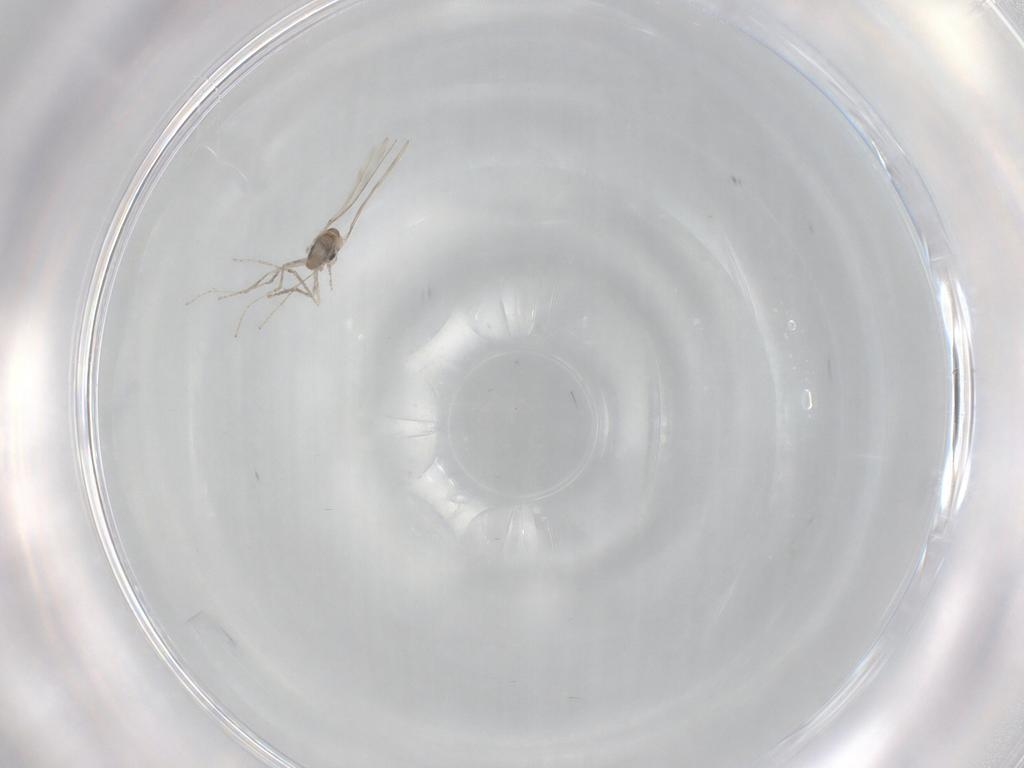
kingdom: Animalia
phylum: Arthropoda
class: Insecta
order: Diptera
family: Cecidomyiidae
